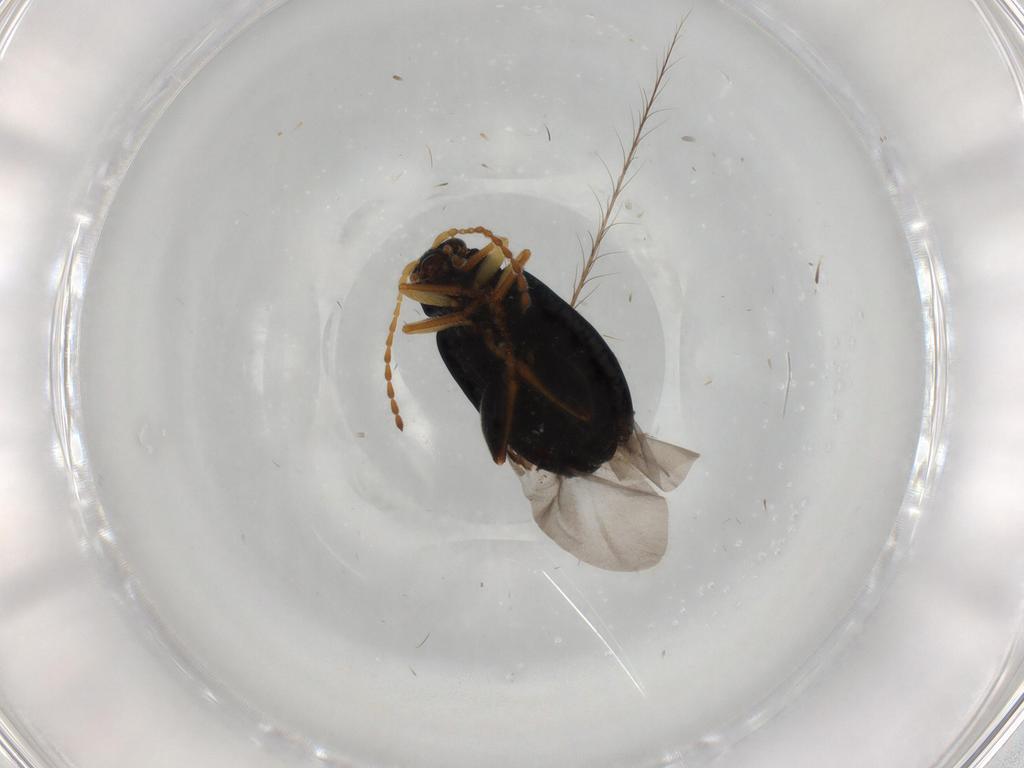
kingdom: Animalia
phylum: Arthropoda
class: Insecta
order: Coleoptera
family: Chrysomelidae
